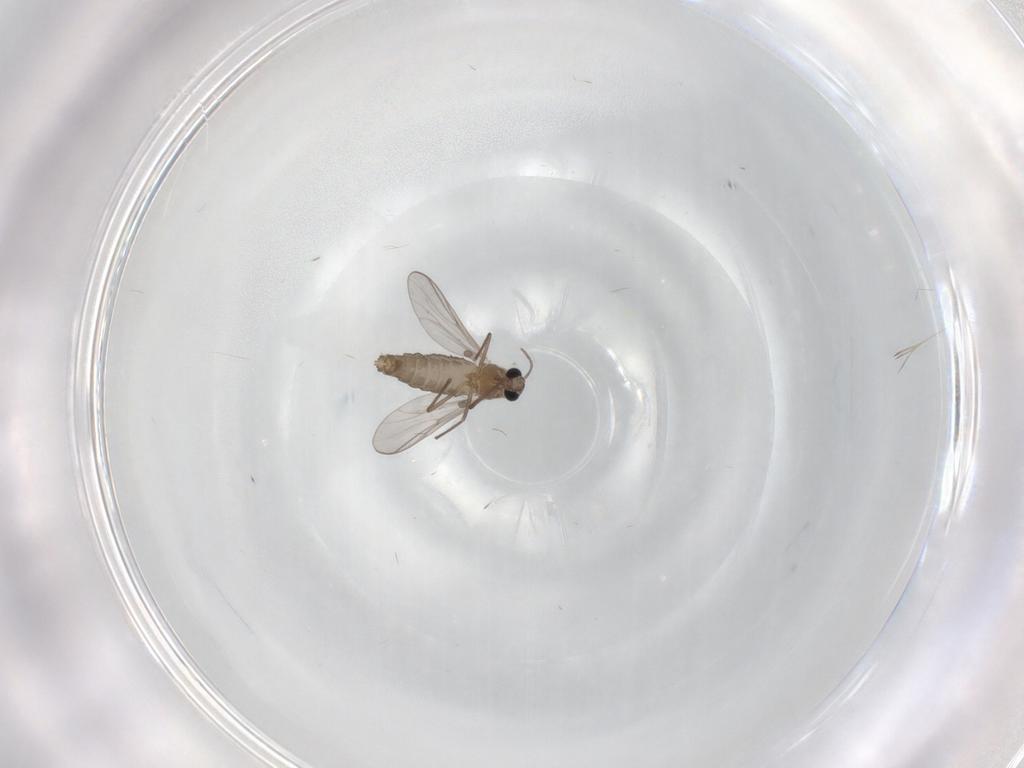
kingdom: Animalia
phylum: Arthropoda
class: Insecta
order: Diptera
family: Chironomidae
